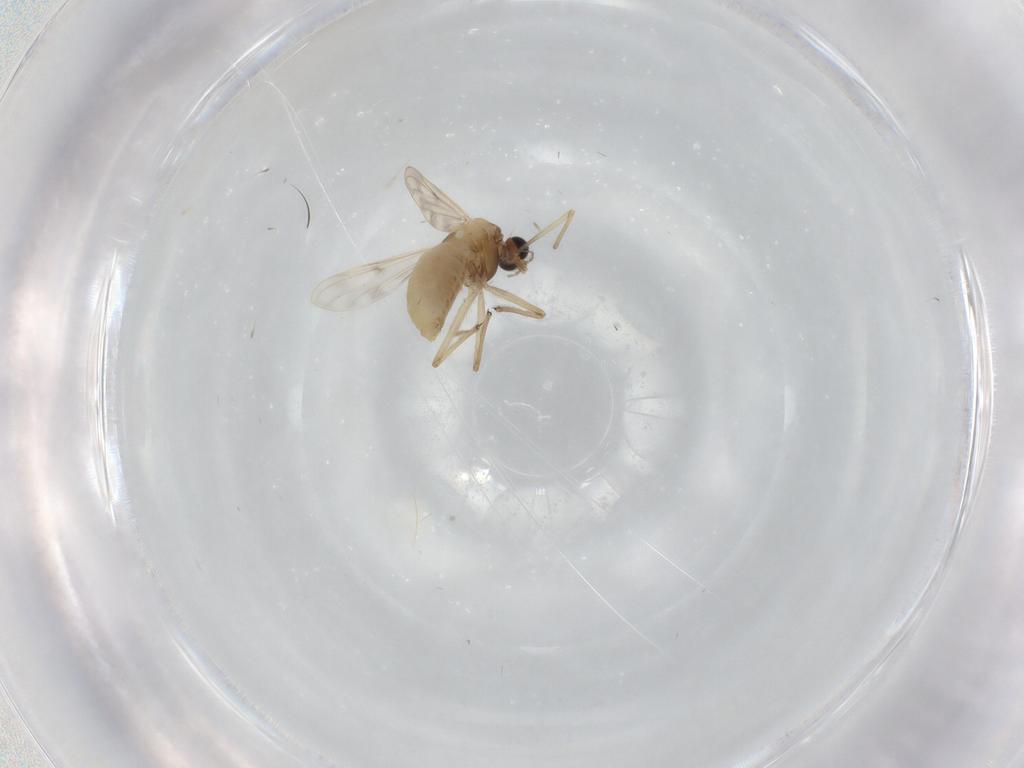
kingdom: Animalia
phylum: Arthropoda
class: Insecta
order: Diptera
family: Chironomidae
